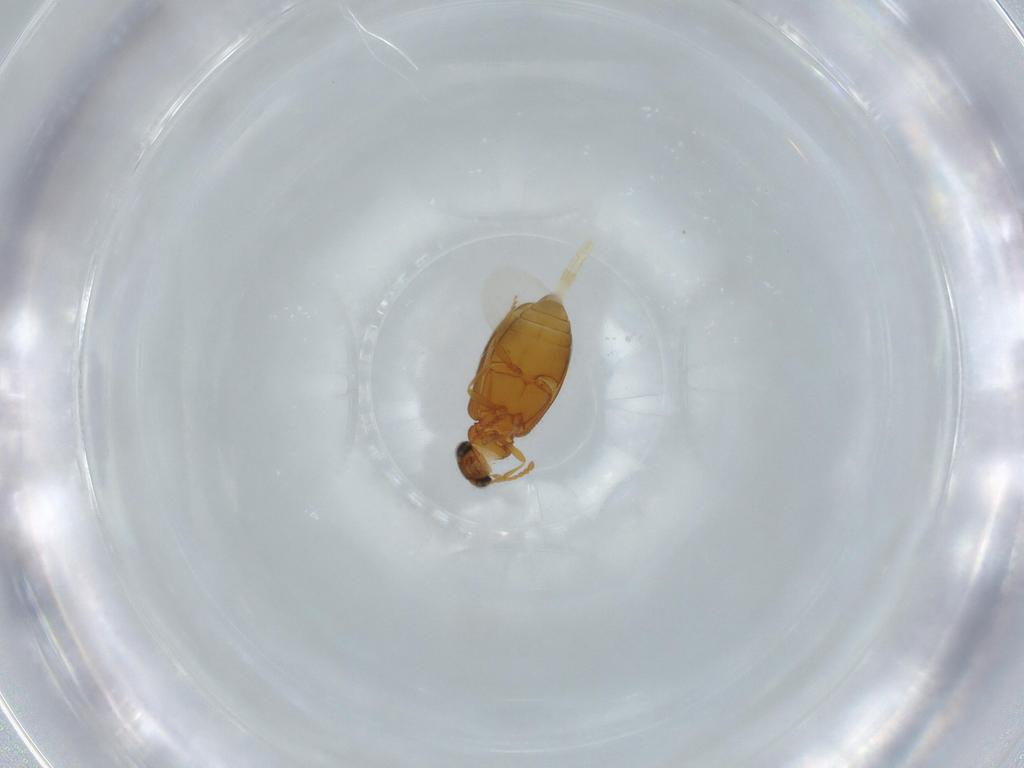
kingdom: Animalia
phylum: Arthropoda
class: Insecta
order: Coleoptera
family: Aderidae
